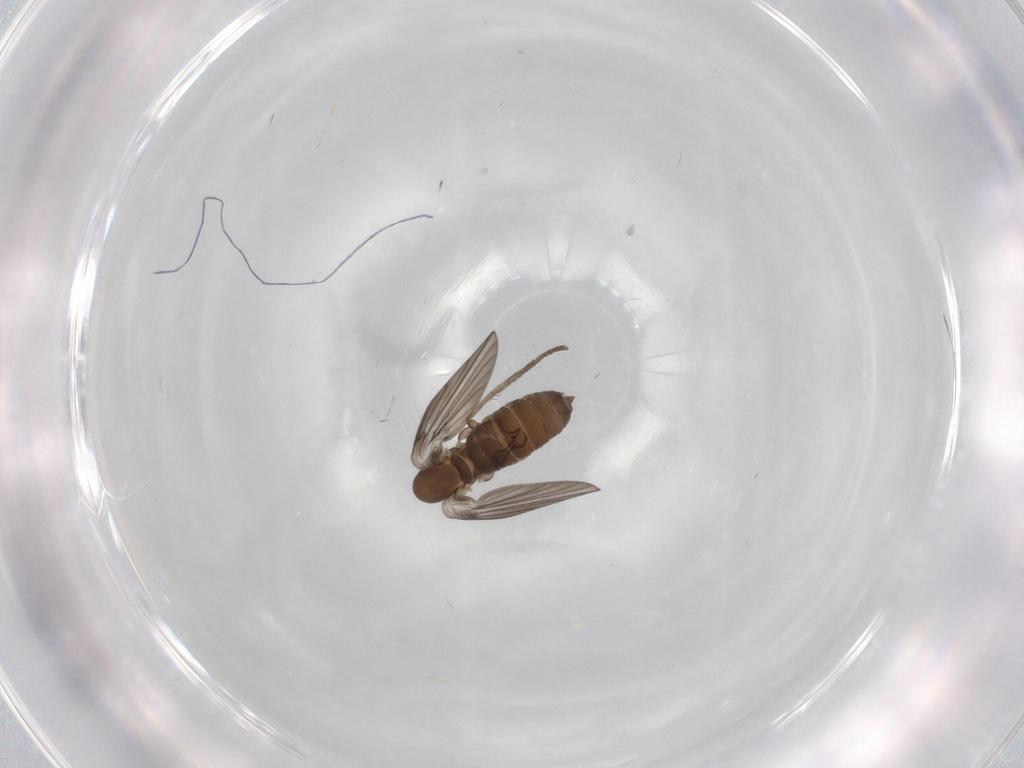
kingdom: Animalia
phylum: Arthropoda
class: Insecta
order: Diptera
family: Psychodidae
